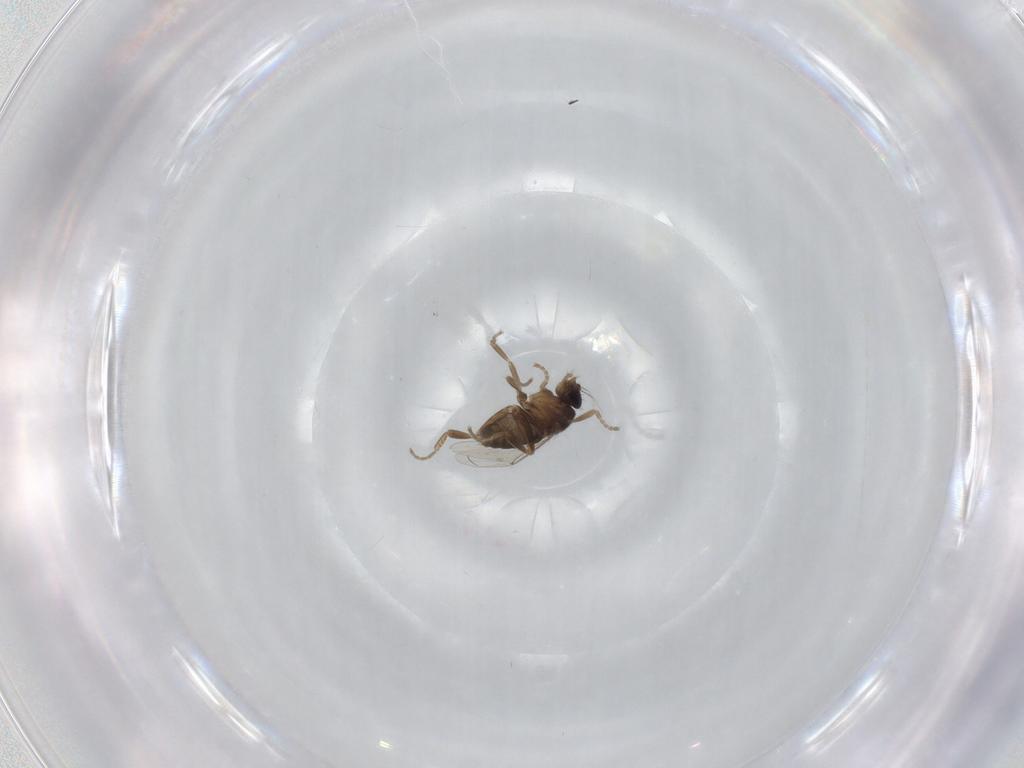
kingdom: Animalia
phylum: Arthropoda
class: Insecta
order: Diptera
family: Phoridae
